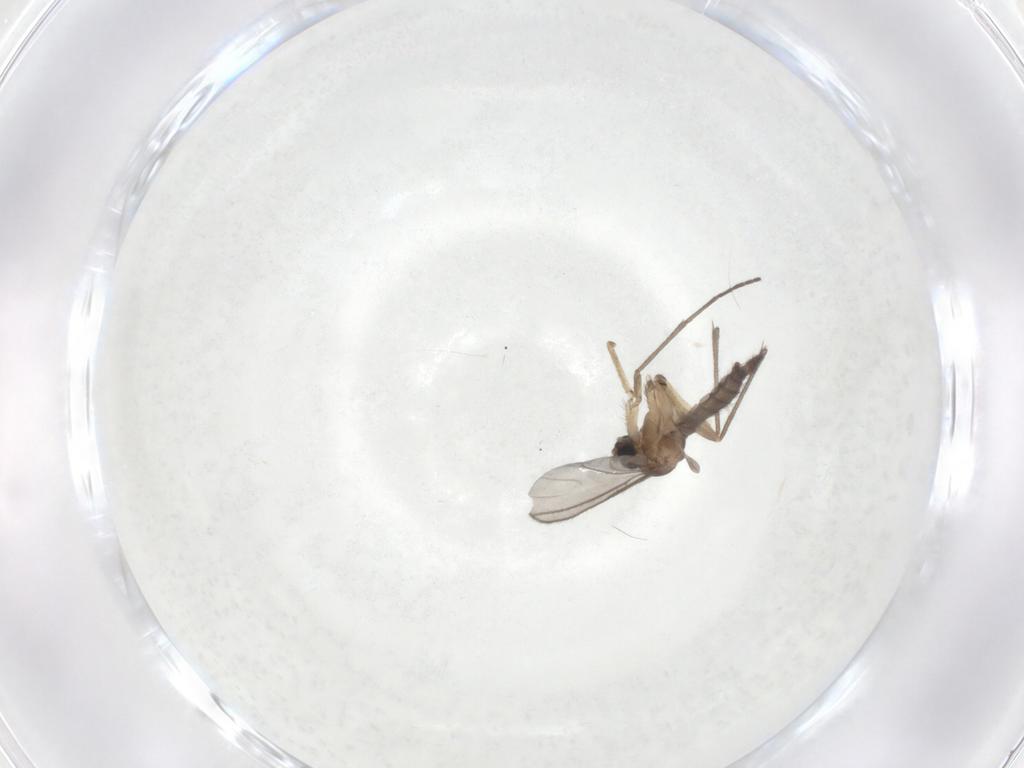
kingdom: Animalia
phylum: Arthropoda
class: Insecta
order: Diptera
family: Sciaridae
